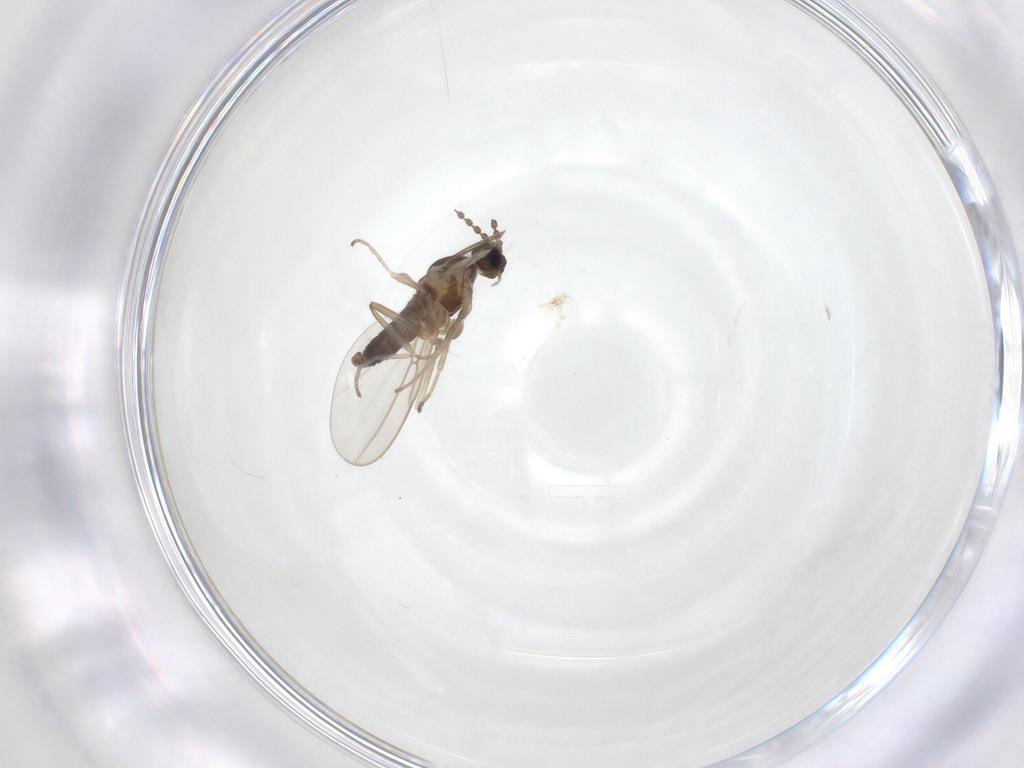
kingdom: Animalia
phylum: Arthropoda
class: Insecta
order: Diptera
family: Cecidomyiidae
